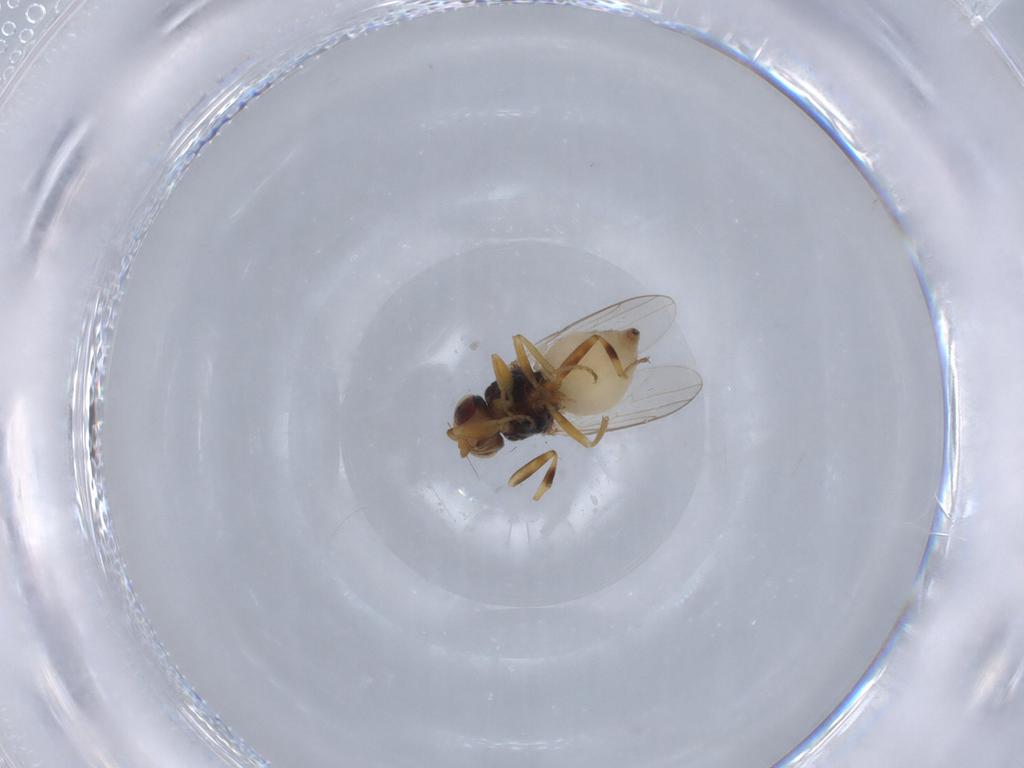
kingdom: Animalia
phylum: Arthropoda
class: Insecta
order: Diptera
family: Chloropidae
